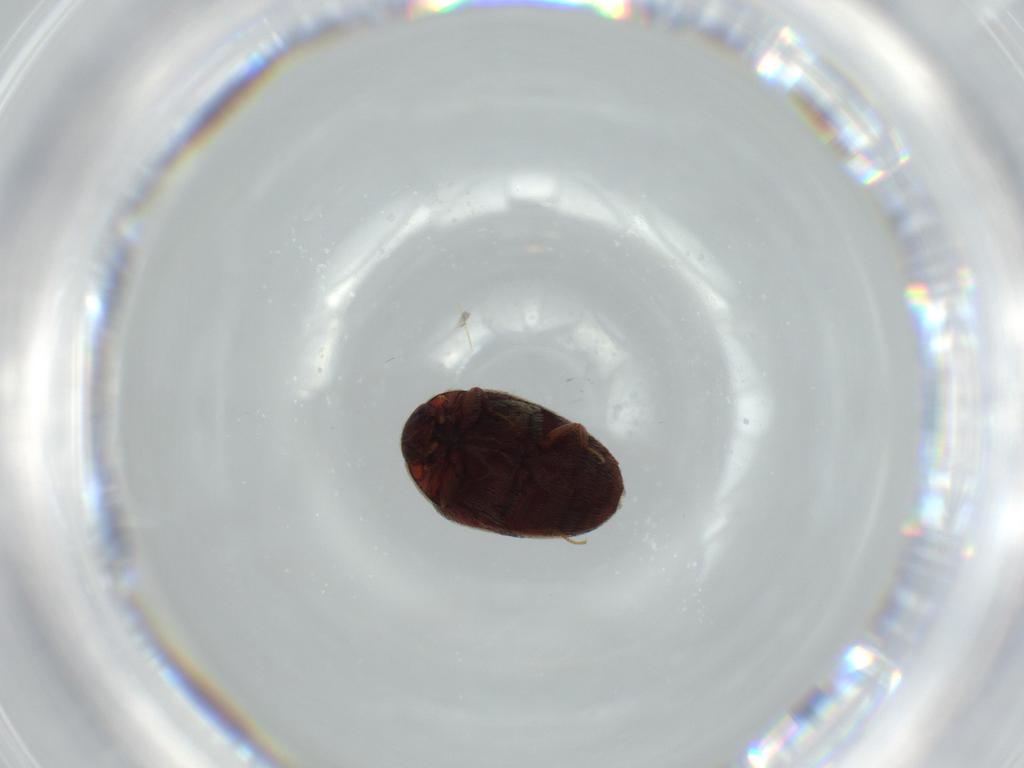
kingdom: Animalia
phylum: Arthropoda
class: Insecta
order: Coleoptera
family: Dermestidae
